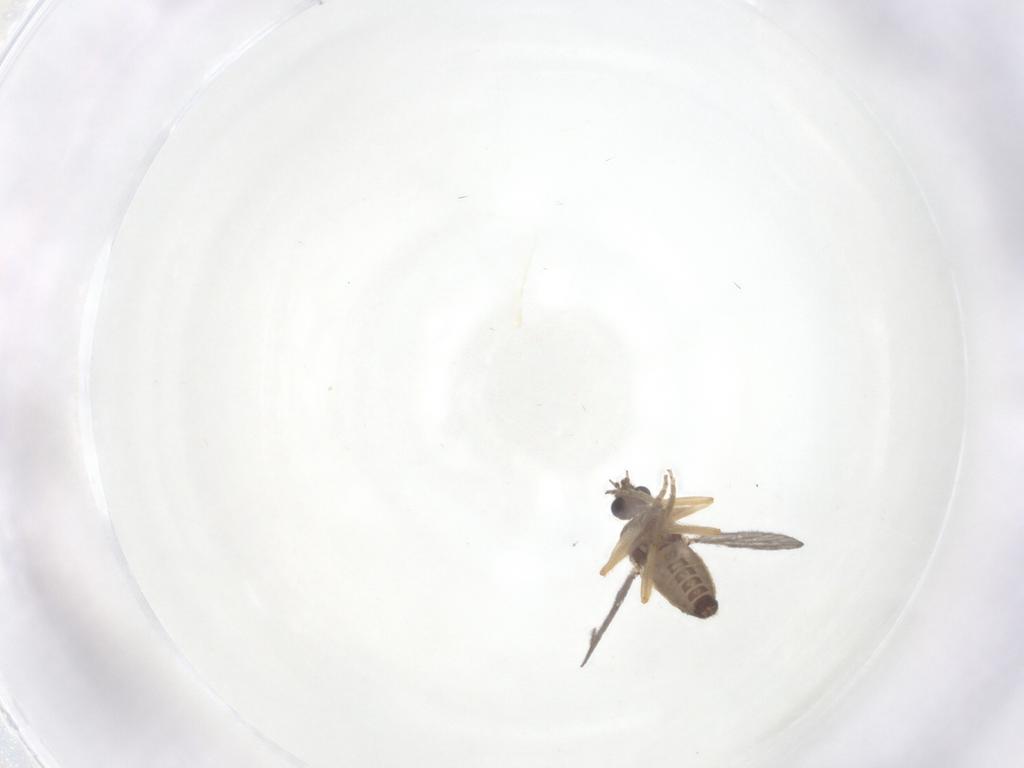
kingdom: Animalia
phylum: Arthropoda
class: Insecta
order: Diptera
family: Ceratopogonidae
